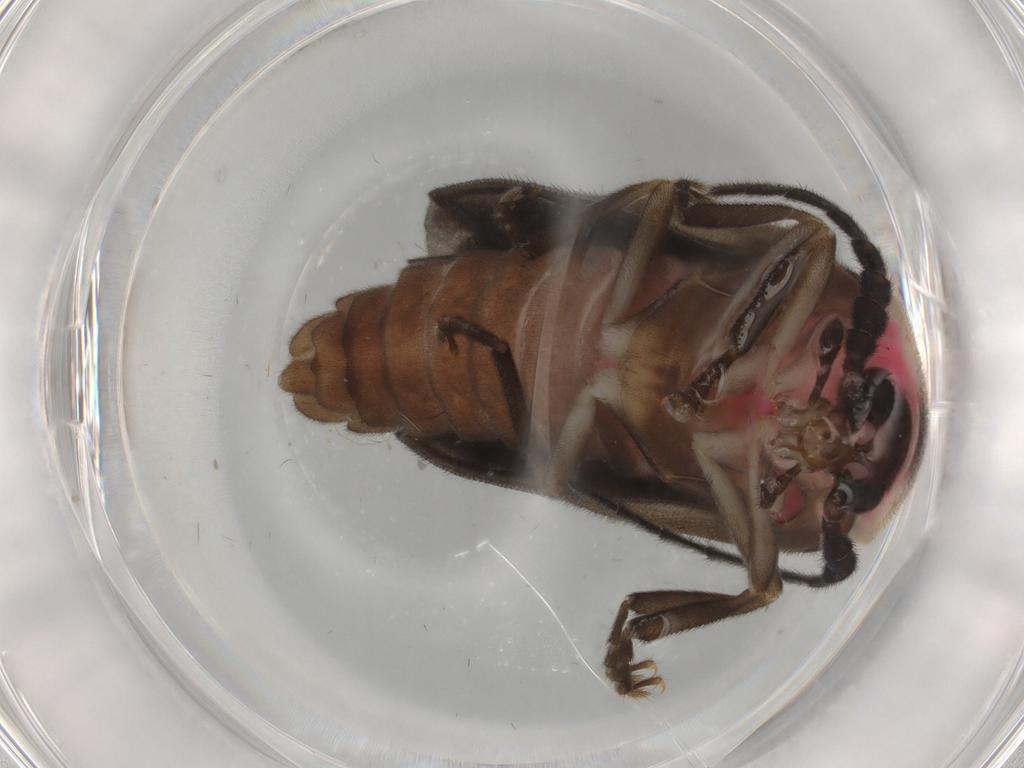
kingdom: Animalia
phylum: Arthropoda
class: Insecta
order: Coleoptera
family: Lampyridae
